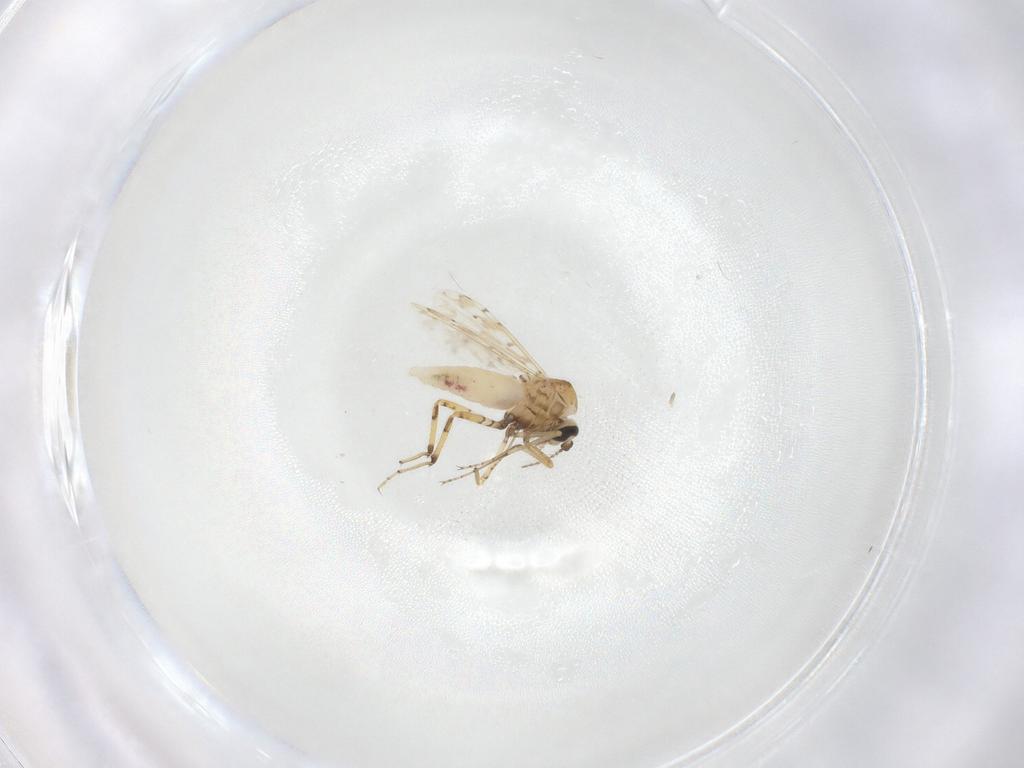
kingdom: Animalia
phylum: Arthropoda
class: Insecta
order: Diptera
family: Ceratopogonidae
